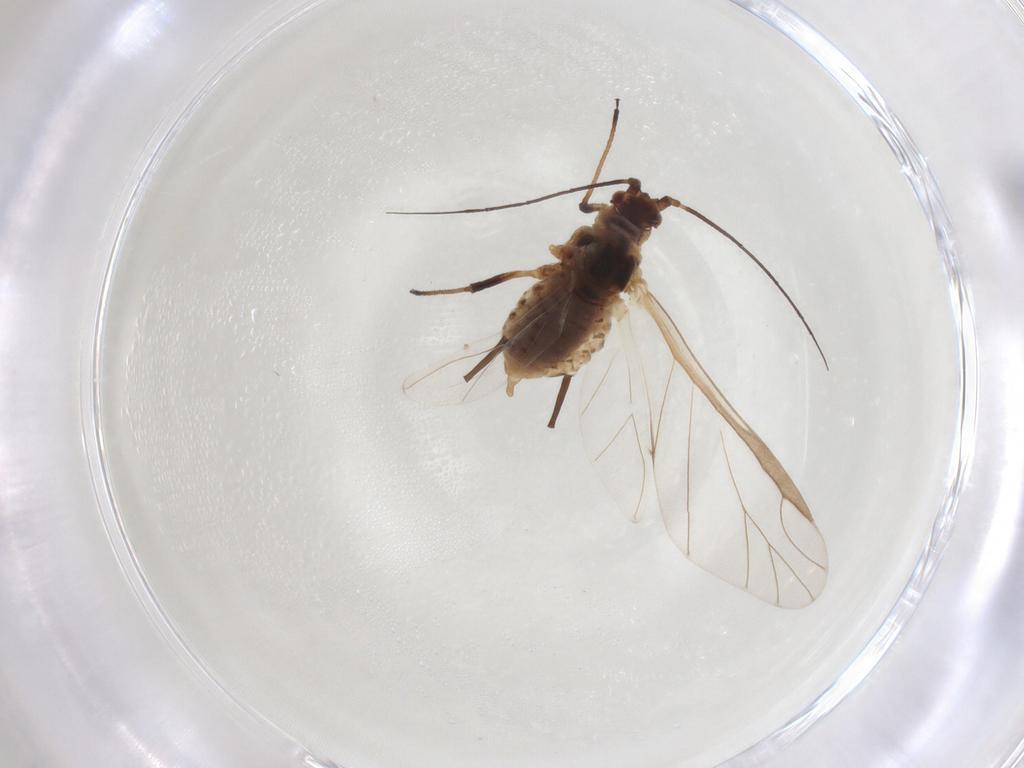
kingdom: Animalia
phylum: Arthropoda
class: Insecta
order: Hemiptera
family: Aphididae
